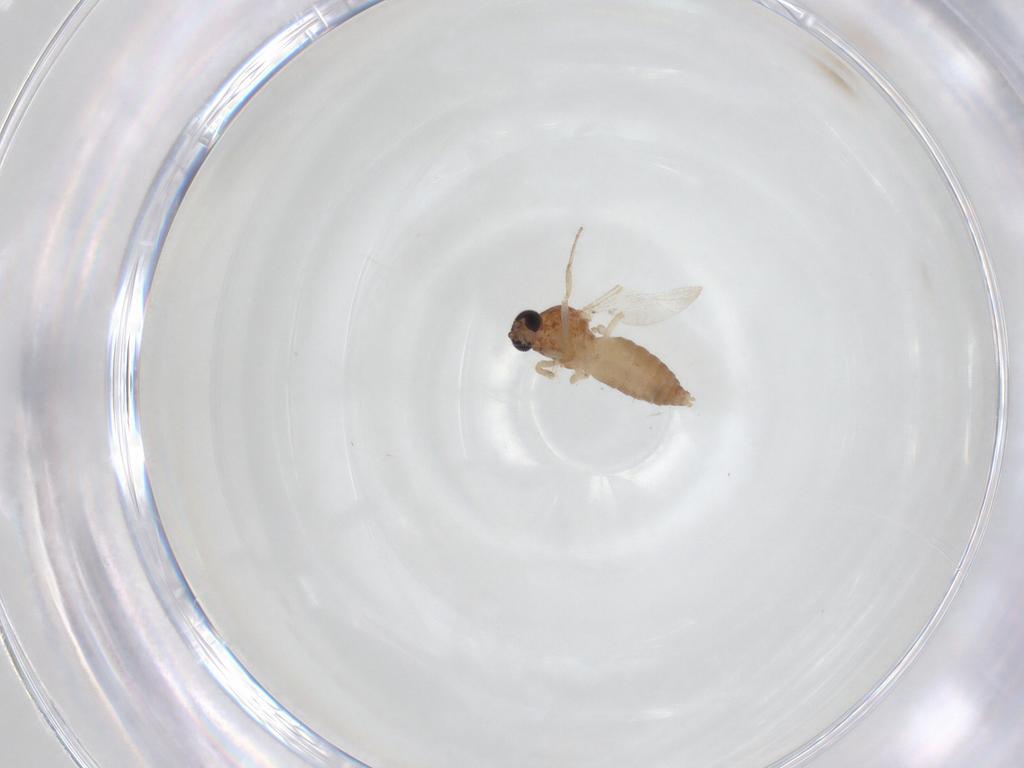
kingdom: Animalia
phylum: Arthropoda
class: Insecta
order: Diptera
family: Ceratopogonidae
